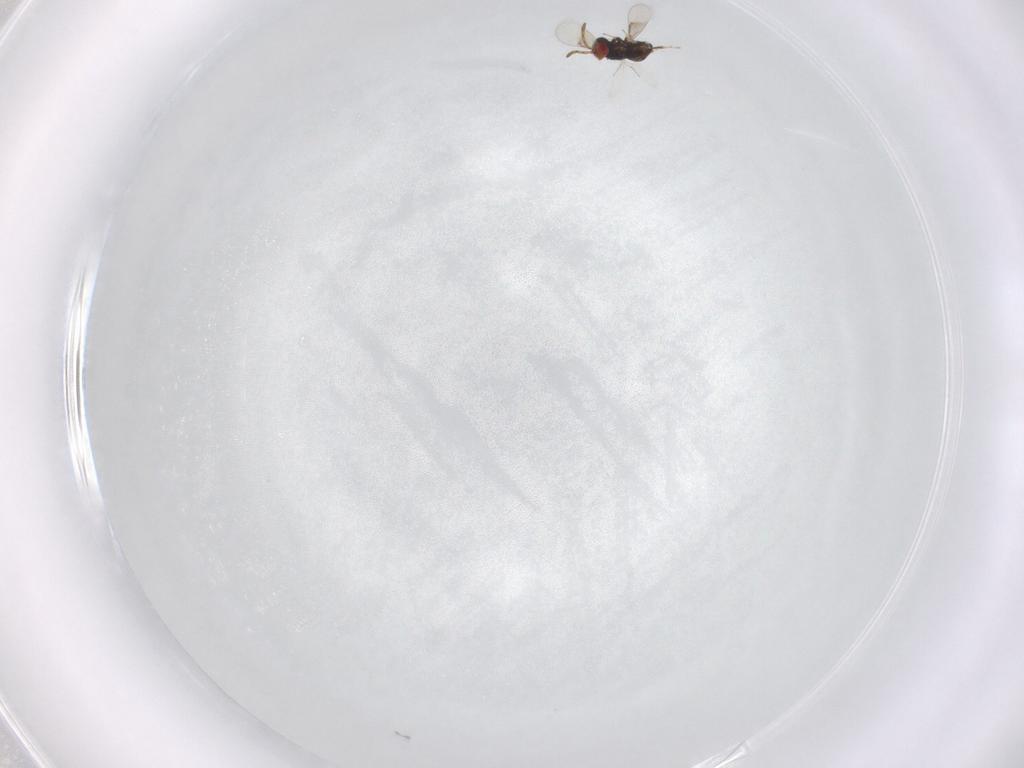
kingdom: Animalia
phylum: Arthropoda
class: Insecta
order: Hymenoptera
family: Azotidae
